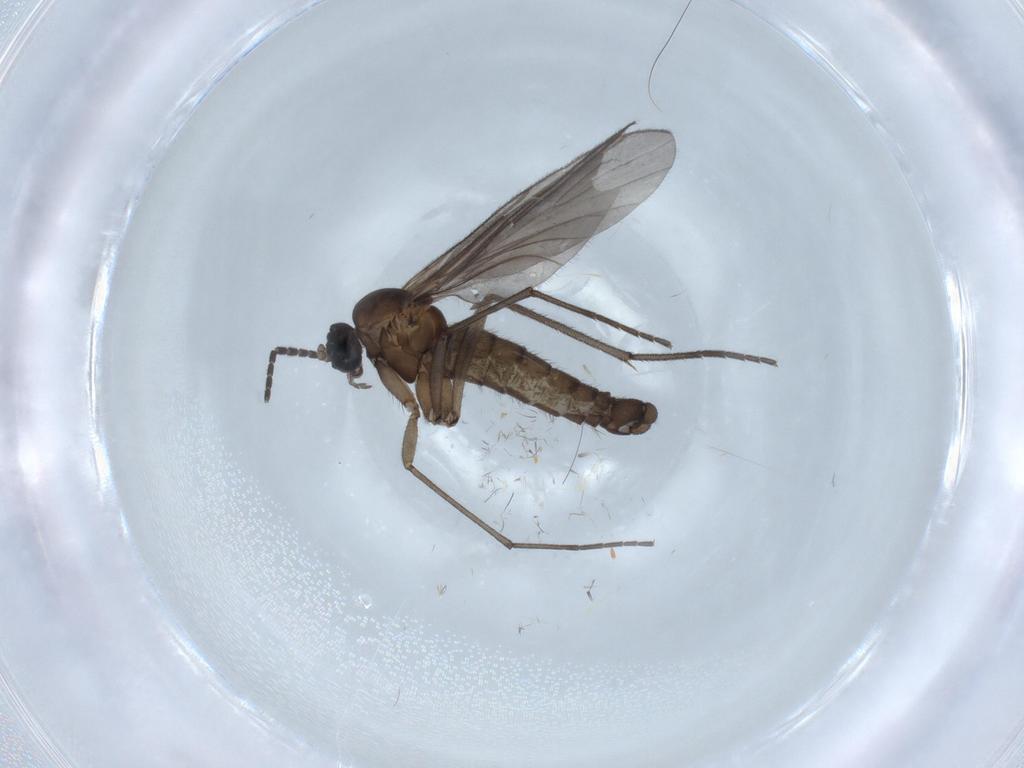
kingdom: Animalia
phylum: Arthropoda
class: Insecta
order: Diptera
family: Sciaridae
